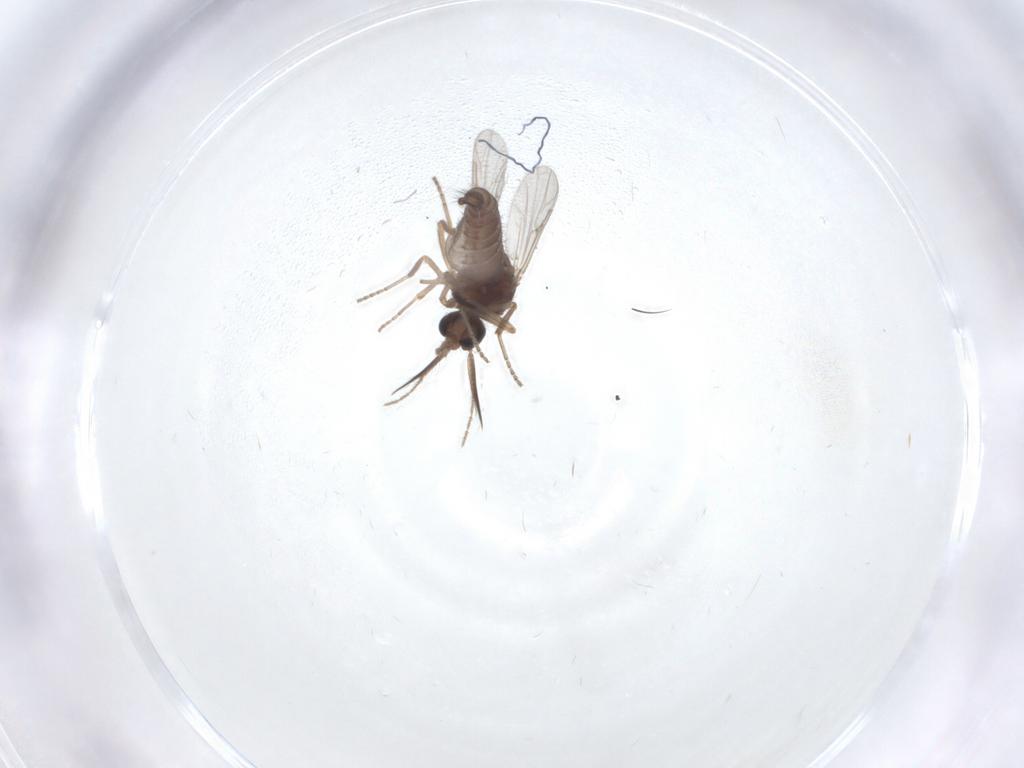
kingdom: Animalia
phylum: Arthropoda
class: Insecta
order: Diptera
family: Ceratopogonidae
